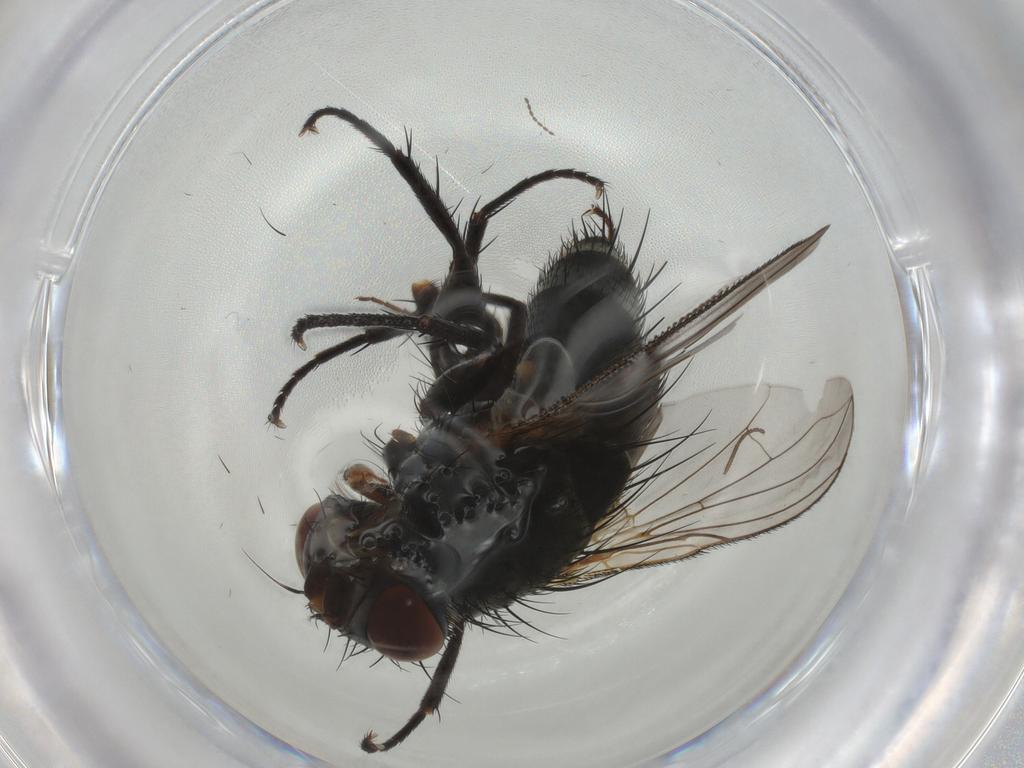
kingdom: Animalia
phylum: Arthropoda
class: Insecta
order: Diptera
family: Tachinidae
